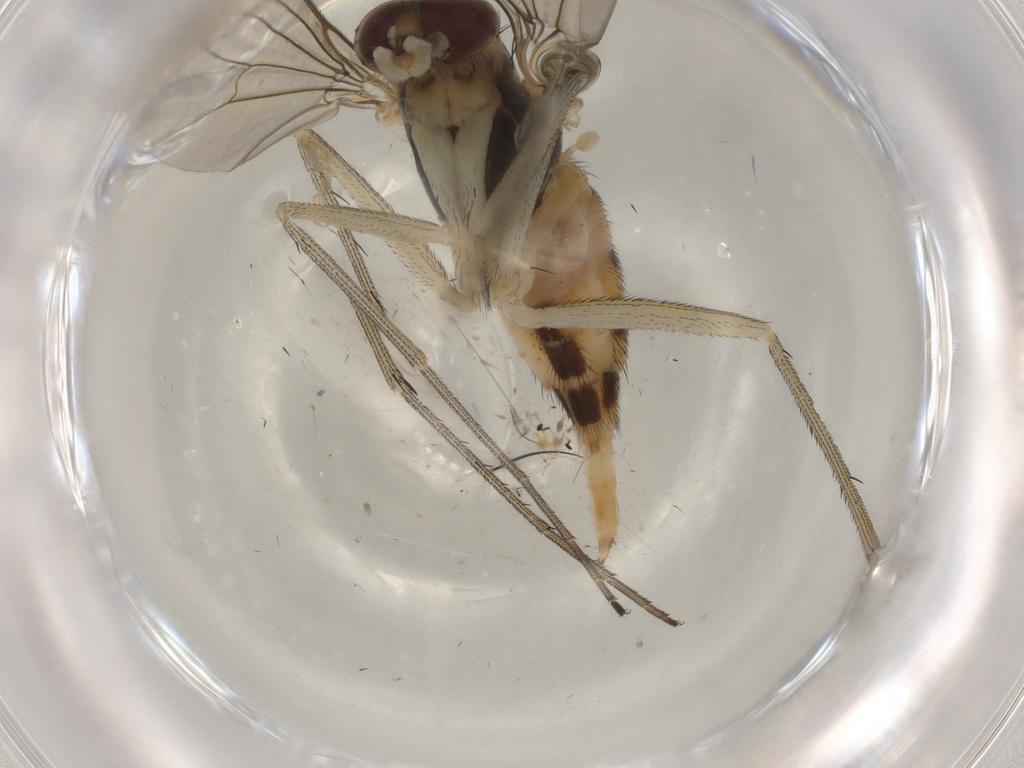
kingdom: Animalia
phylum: Arthropoda
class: Insecta
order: Diptera
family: Dolichopodidae
